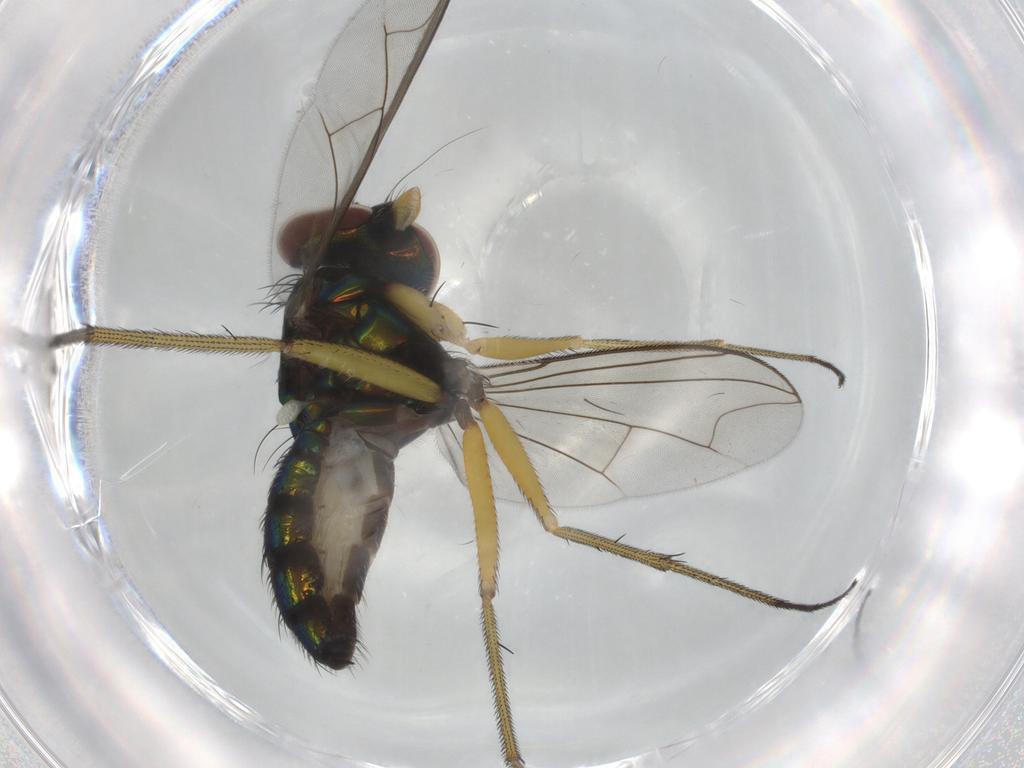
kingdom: Animalia
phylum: Arthropoda
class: Insecta
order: Diptera
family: Dolichopodidae
